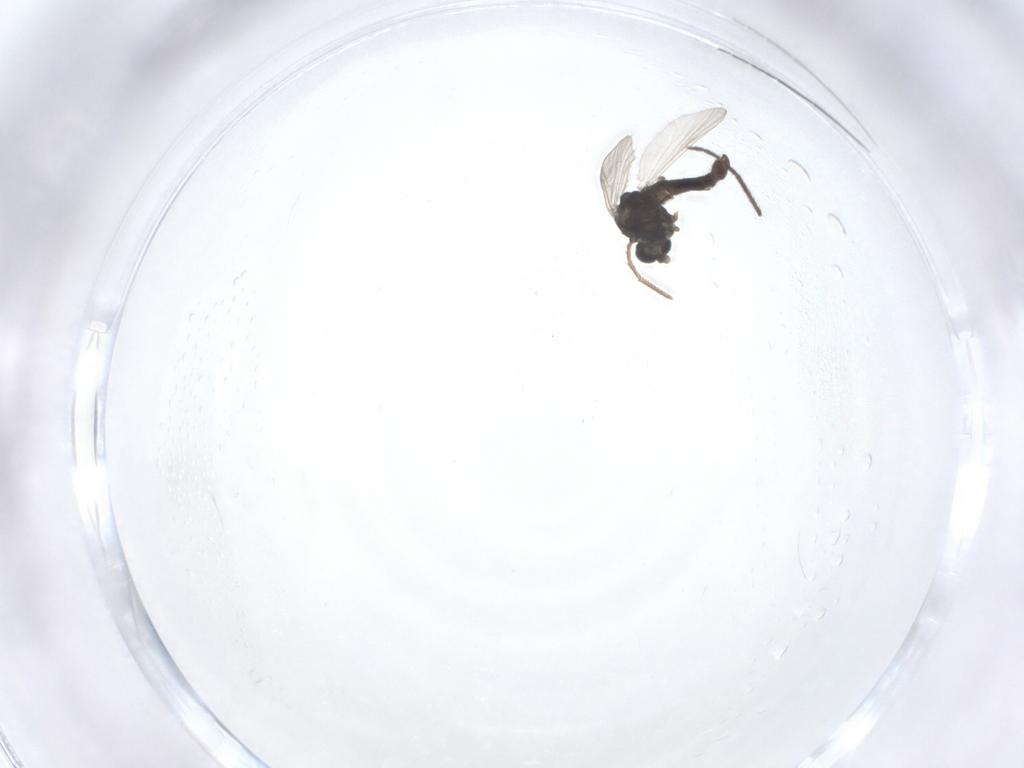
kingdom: Animalia
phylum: Arthropoda
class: Insecta
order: Diptera
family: Chironomidae
